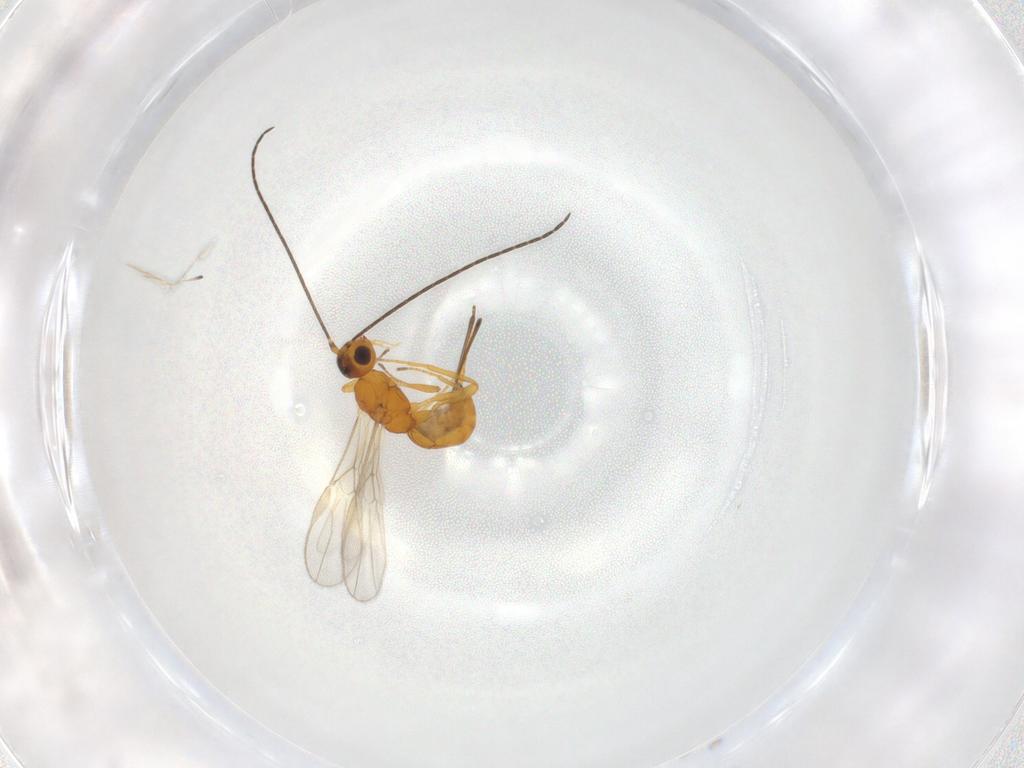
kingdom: Animalia
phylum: Arthropoda
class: Insecta
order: Hymenoptera
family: Braconidae
